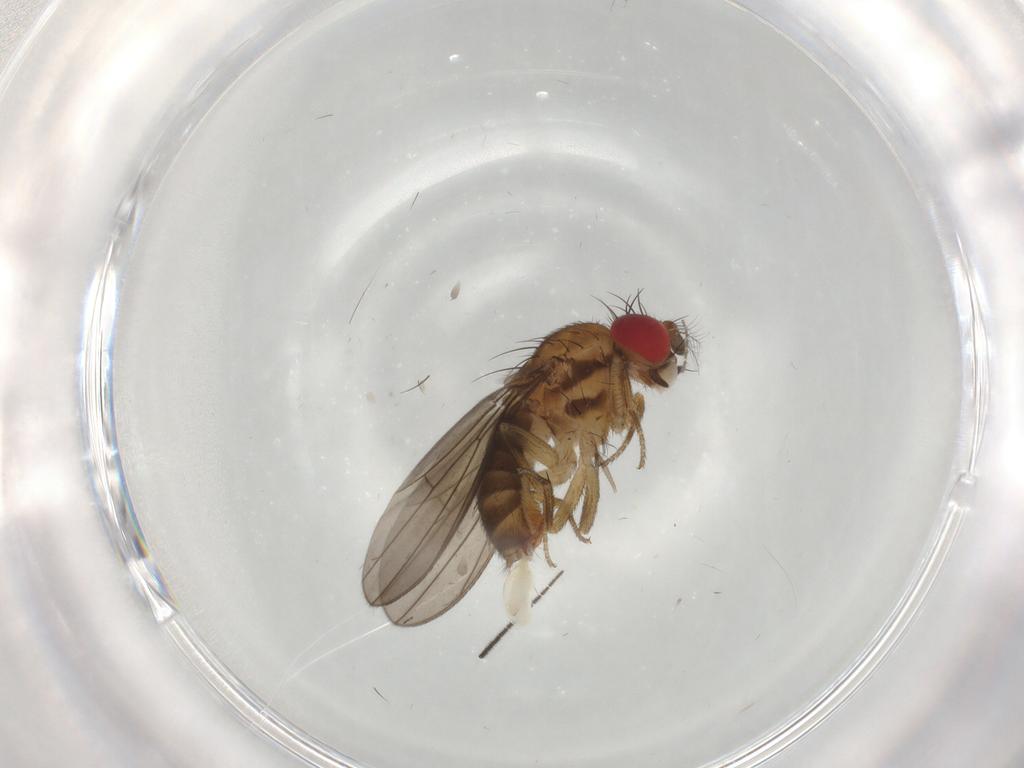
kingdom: Animalia
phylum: Arthropoda
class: Insecta
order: Diptera
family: Drosophilidae
